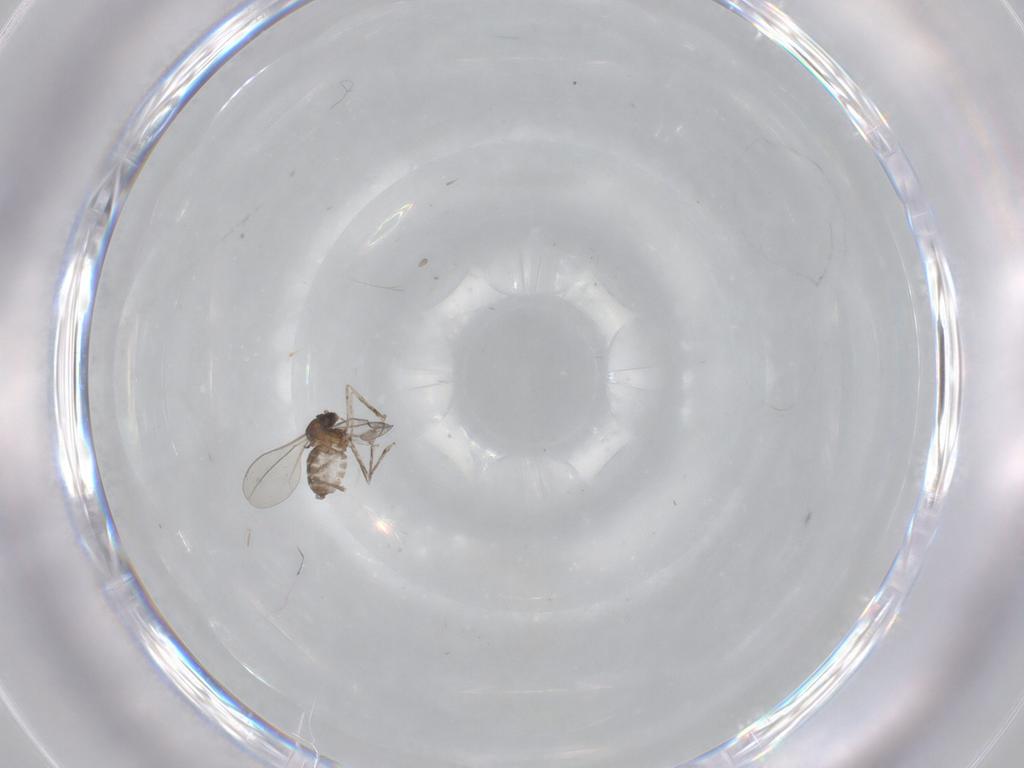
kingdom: Animalia
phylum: Arthropoda
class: Insecta
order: Diptera
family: Cecidomyiidae
